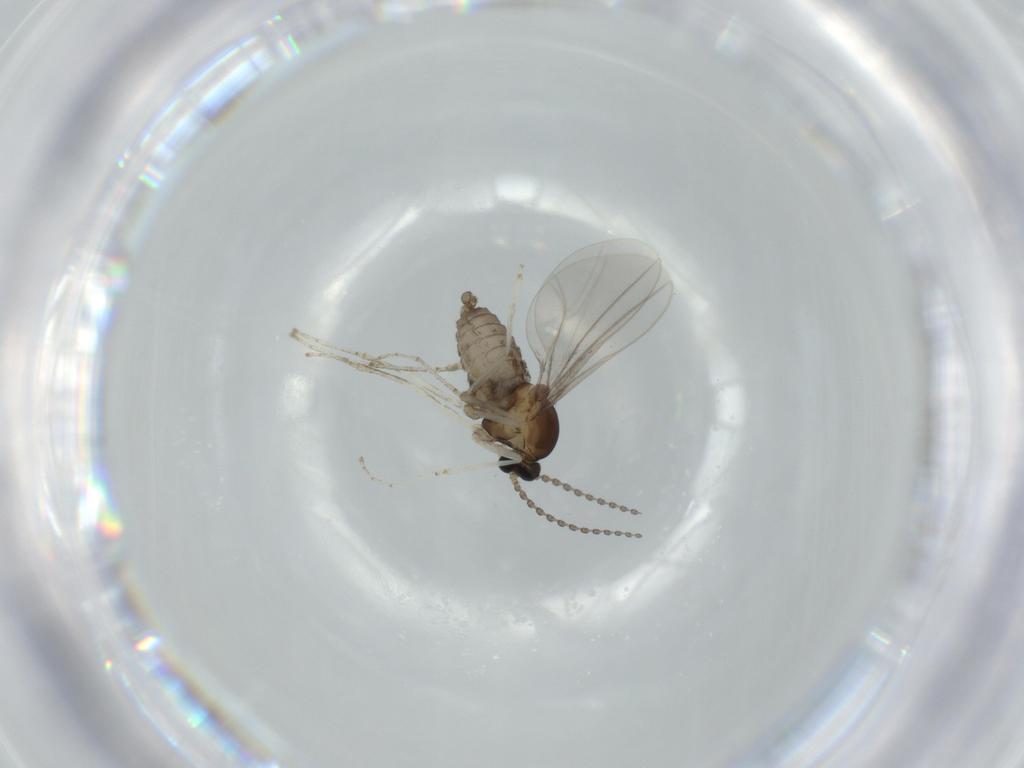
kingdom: Animalia
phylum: Arthropoda
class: Insecta
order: Diptera
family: Cecidomyiidae
